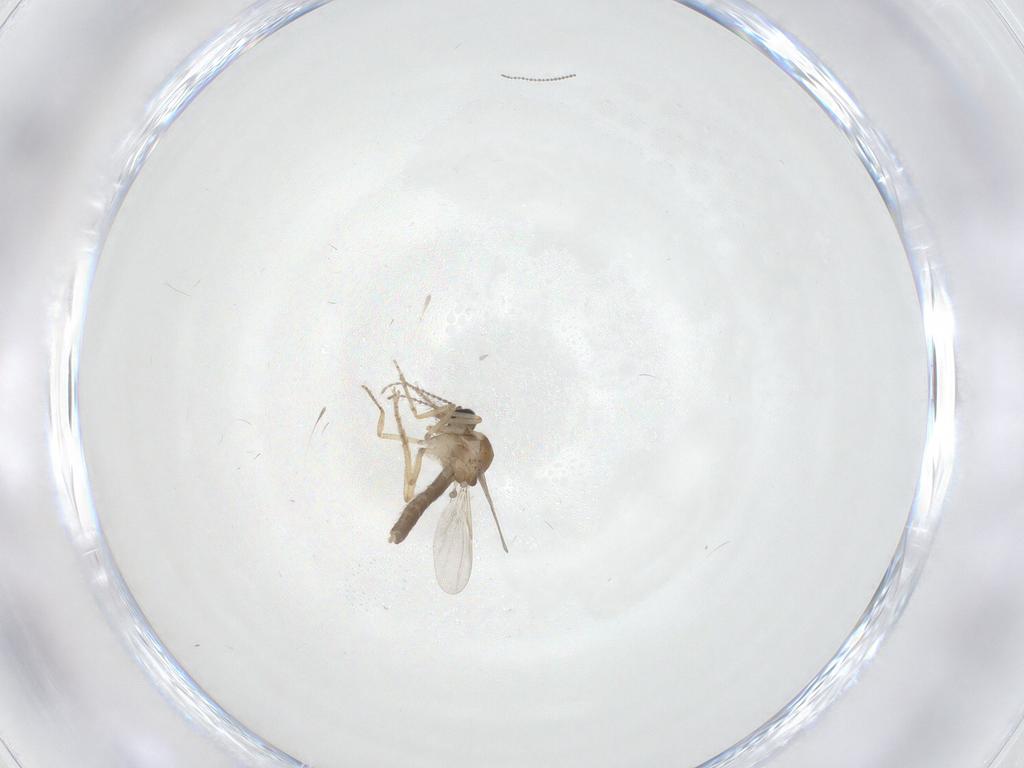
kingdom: Animalia
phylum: Arthropoda
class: Insecta
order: Diptera
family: Ceratopogonidae
